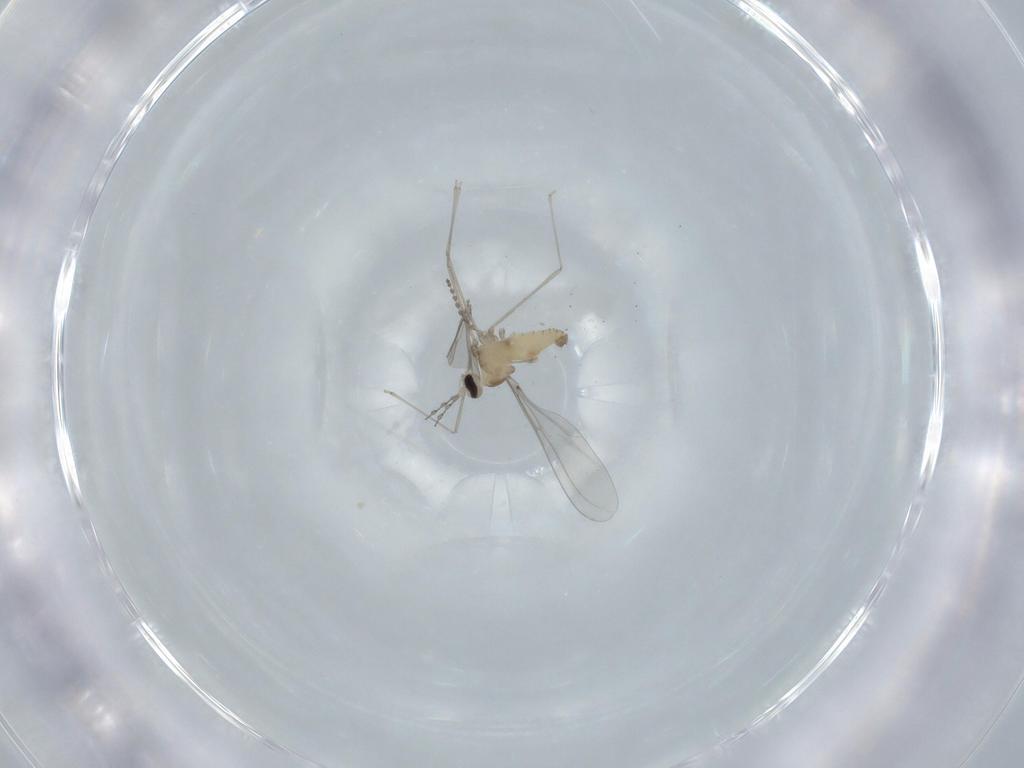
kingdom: Animalia
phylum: Arthropoda
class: Insecta
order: Diptera
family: Cecidomyiidae
